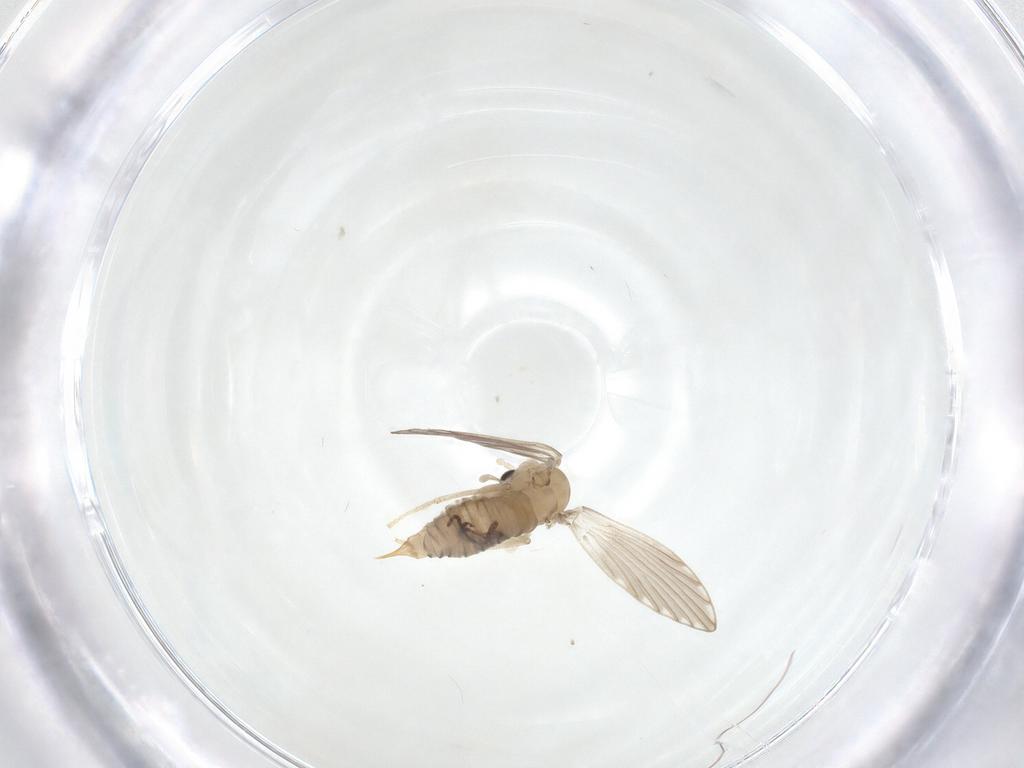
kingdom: Animalia
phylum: Arthropoda
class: Insecta
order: Diptera
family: Psychodidae
